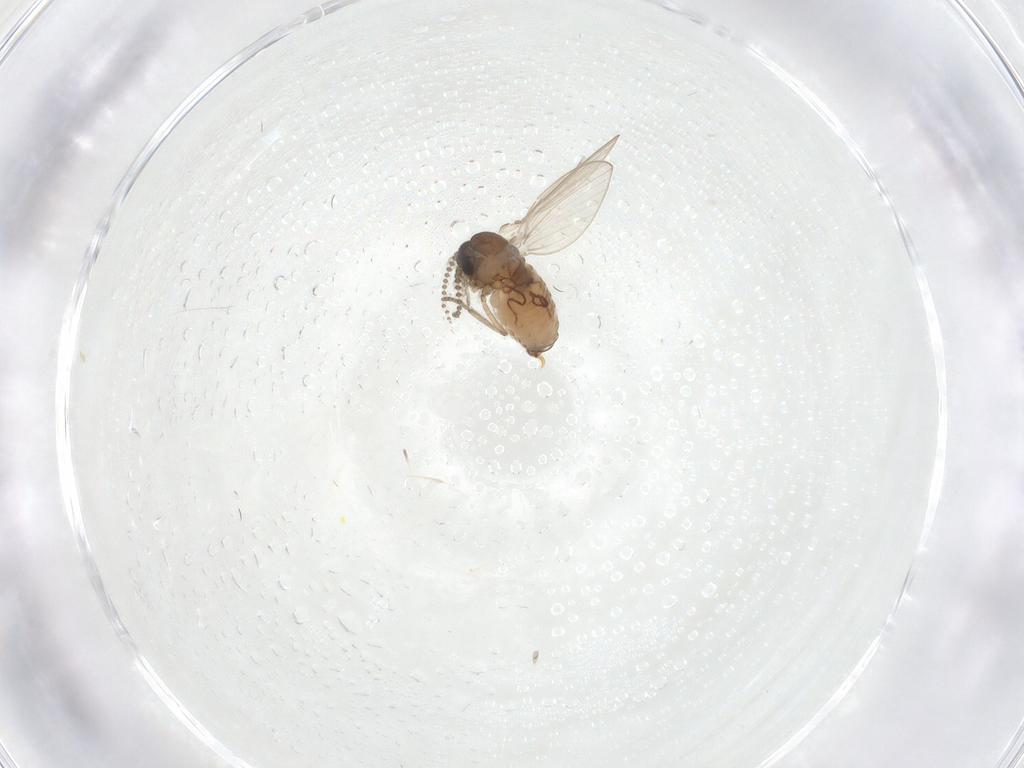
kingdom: Animalia
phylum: Arthropoda
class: Insecta
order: Diptera
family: Psychodidae
